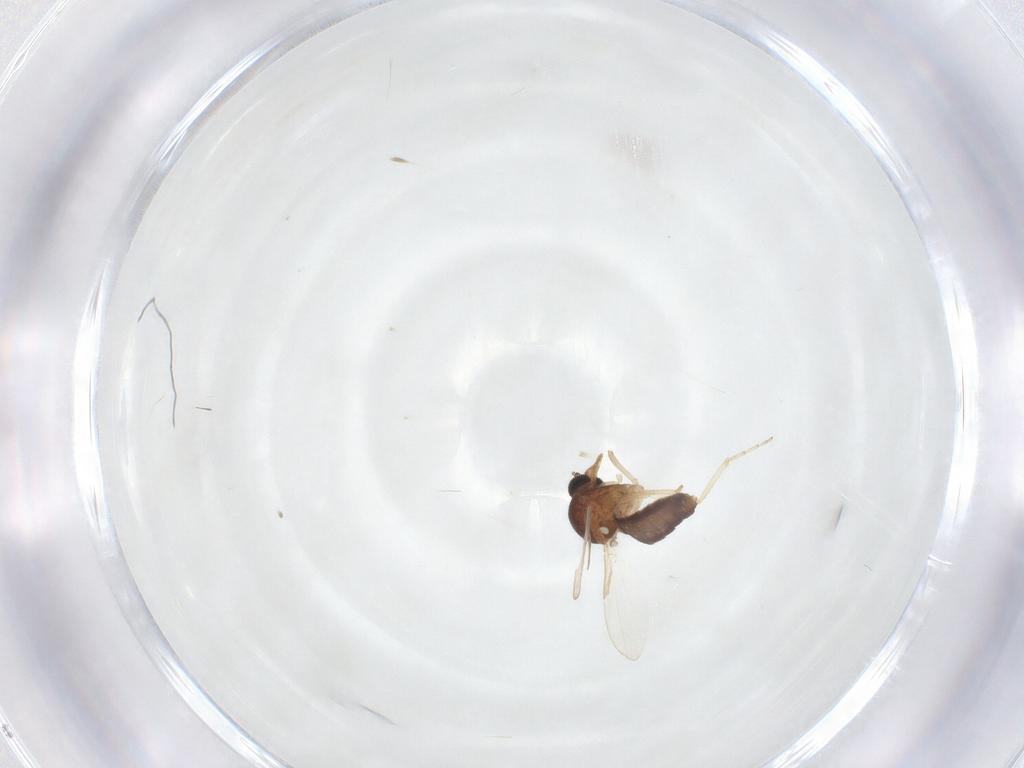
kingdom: Animalia
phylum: Arthropoda
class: Insecta
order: Diptera
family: Ceratopogonidae
